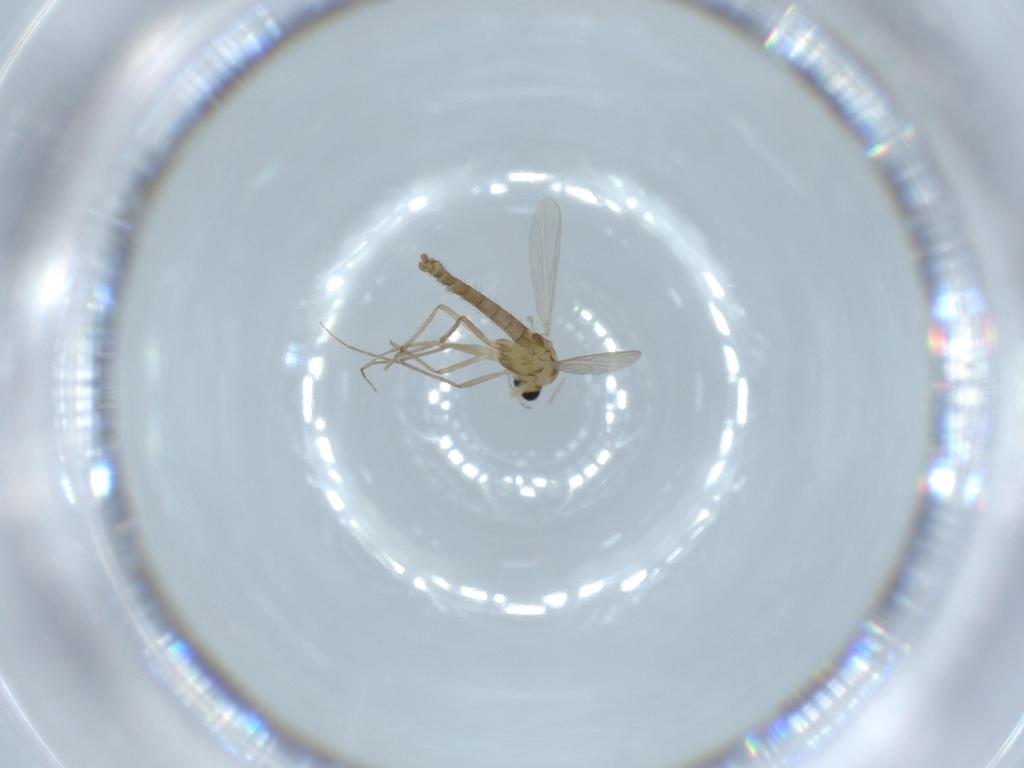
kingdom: Animalia
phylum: Arthropoda
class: Insecta
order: Diptera
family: Chironomidae
